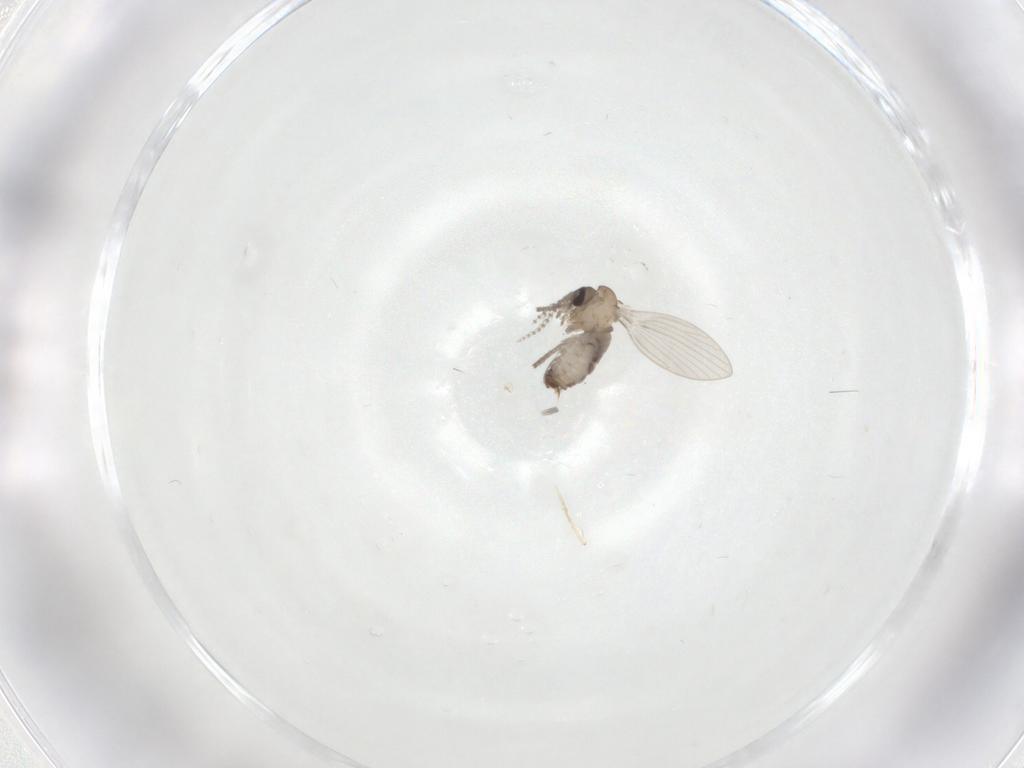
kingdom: Animalia
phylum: Arthropoda
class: Insecta
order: Diptera
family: Psychodidae
